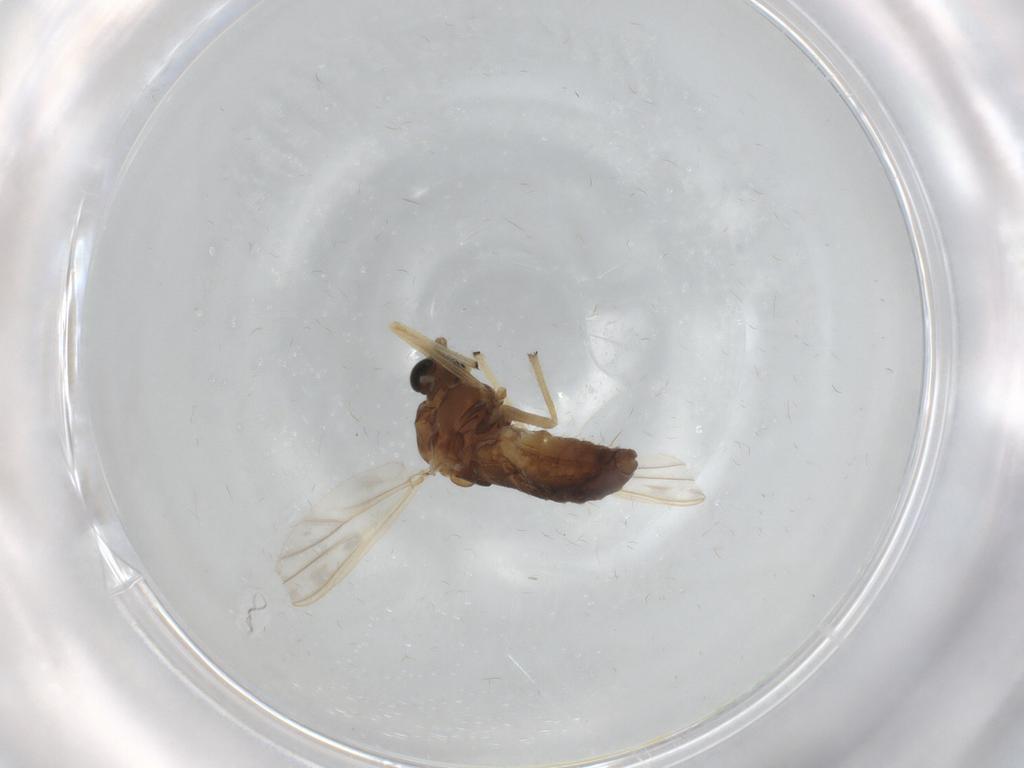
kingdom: Animalia
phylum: Arthropoda
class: Insecta
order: Diptera
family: Chironomidae
